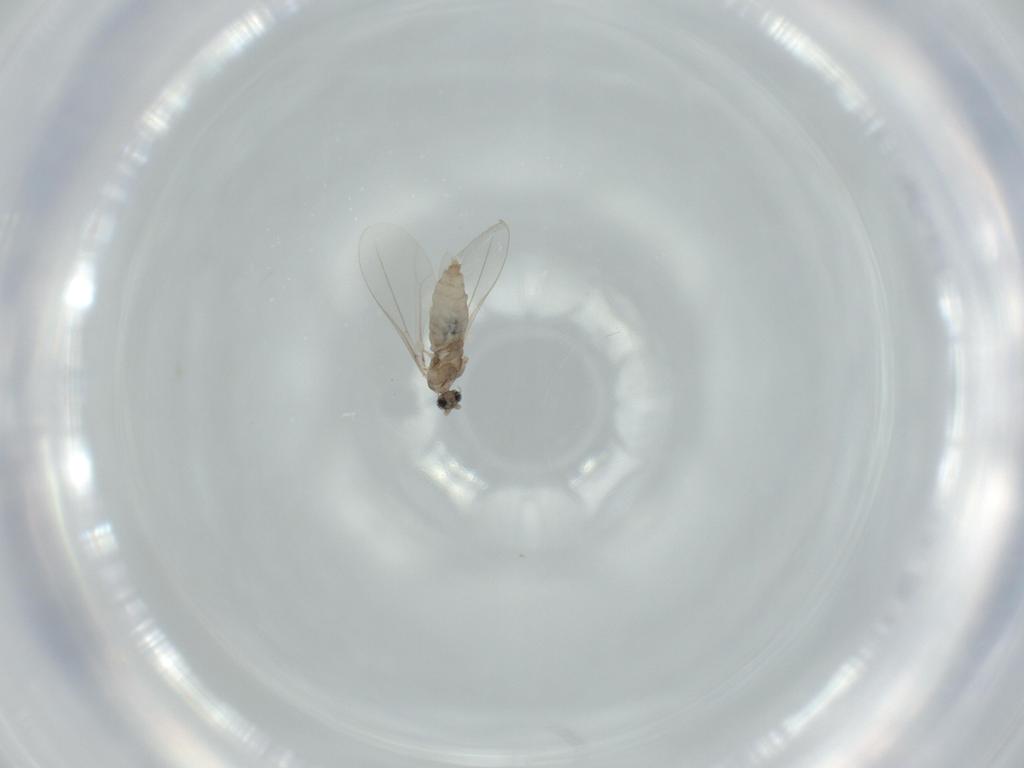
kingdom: Animalia
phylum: Arthropoda
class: Insecta
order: Diptera
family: Cecidomyiidae
